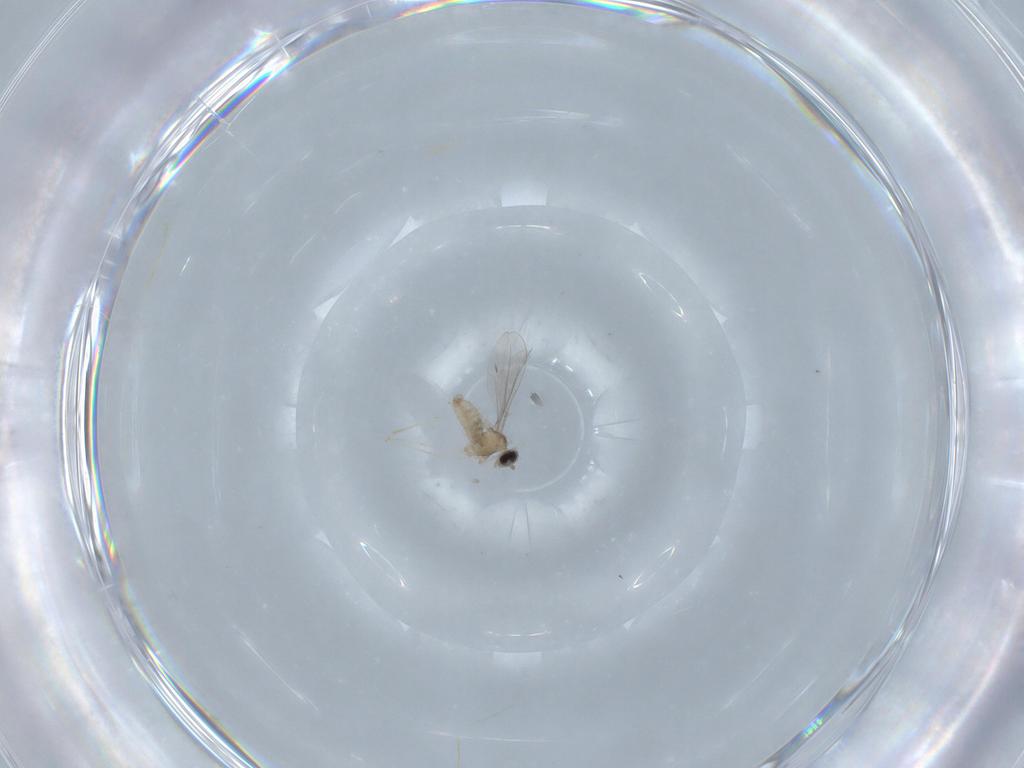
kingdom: Animalia
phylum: Arthropoda
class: Insecta
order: Diptera
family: Cecidomyiidae
